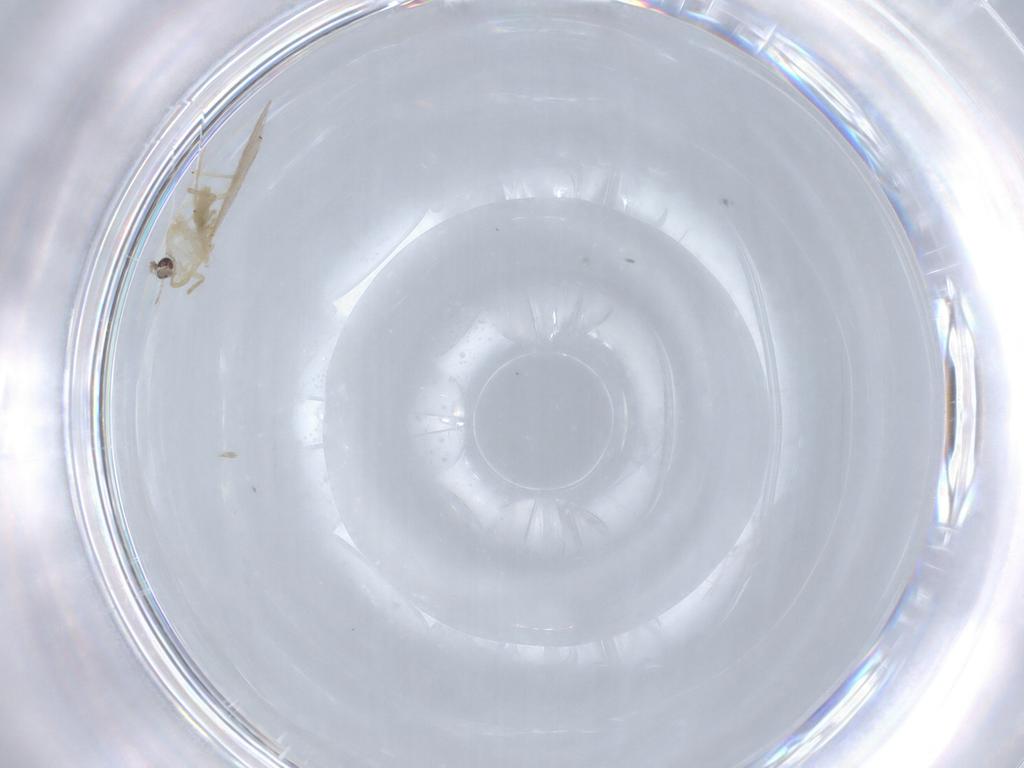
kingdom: Animalia
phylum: Arthropoda
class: Insecta
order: Diptera
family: Chironomidae
